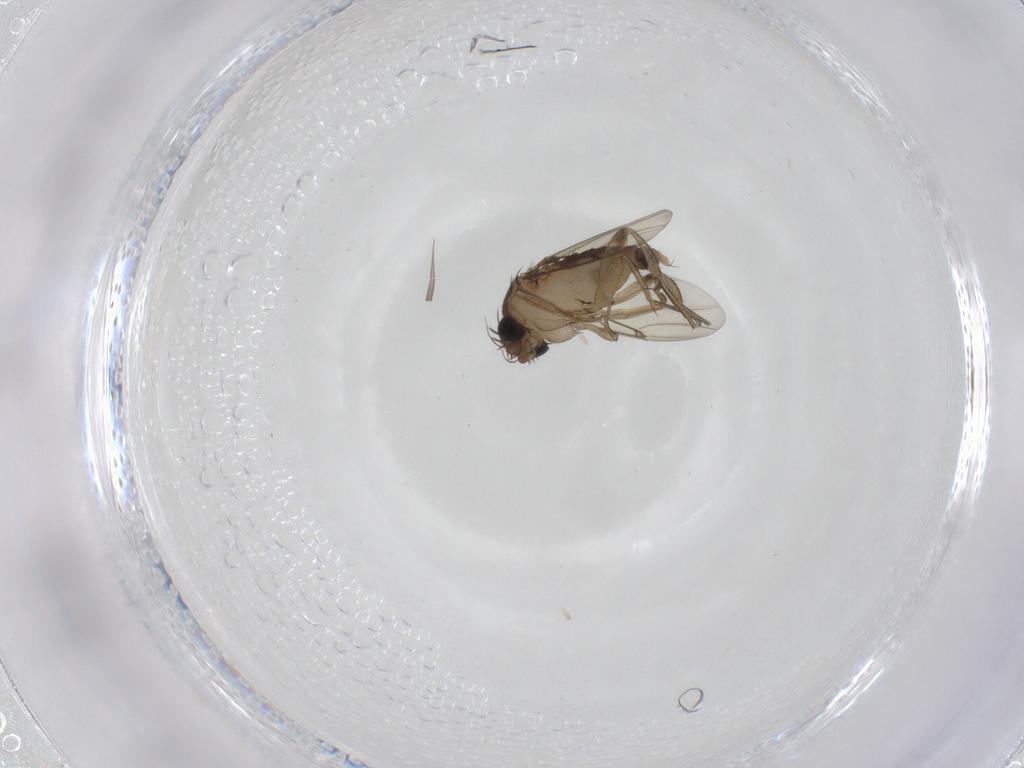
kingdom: Animalia
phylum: Arthropoda
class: Insecta
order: Diptera
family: Phoridae
